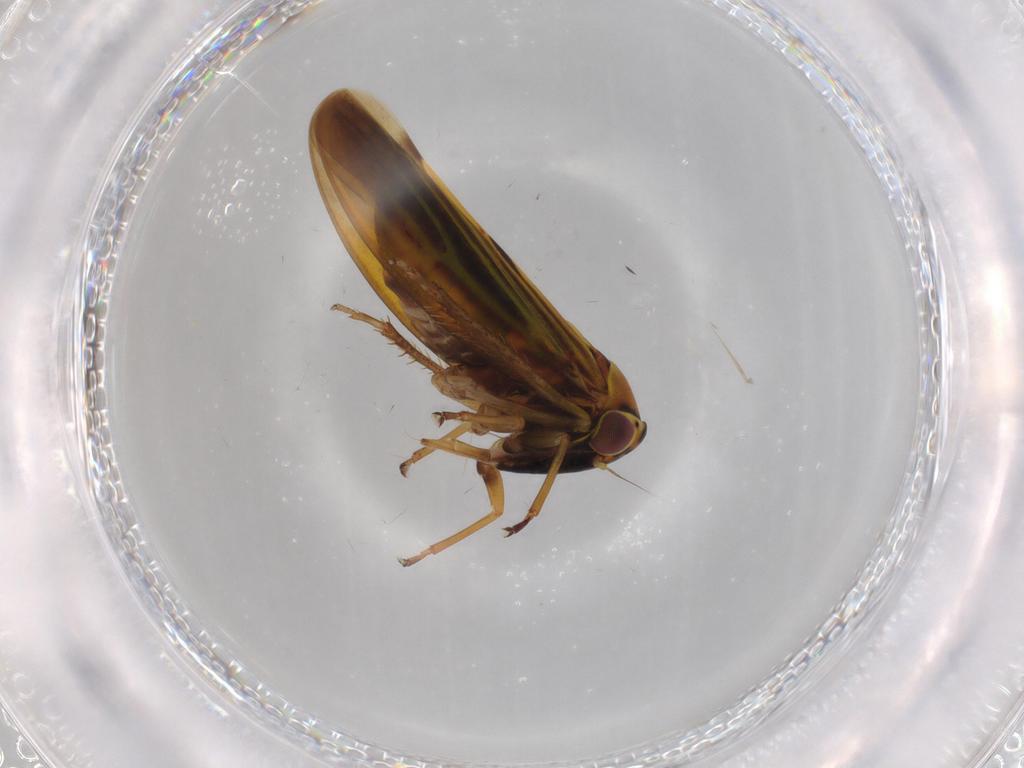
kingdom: Animalia
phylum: Arthropoda
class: Insecta
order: Hemiptera
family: Cicadellidae
